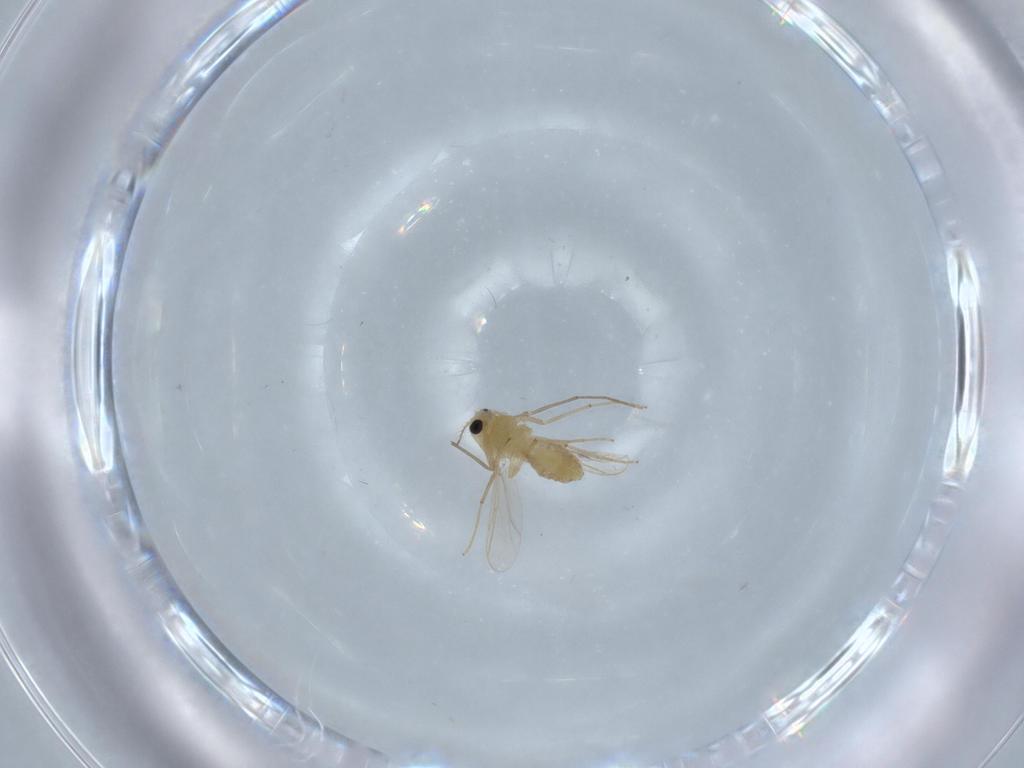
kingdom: Animalia
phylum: Arthropoda
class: Insecta
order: Diptera
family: Chironomidae
